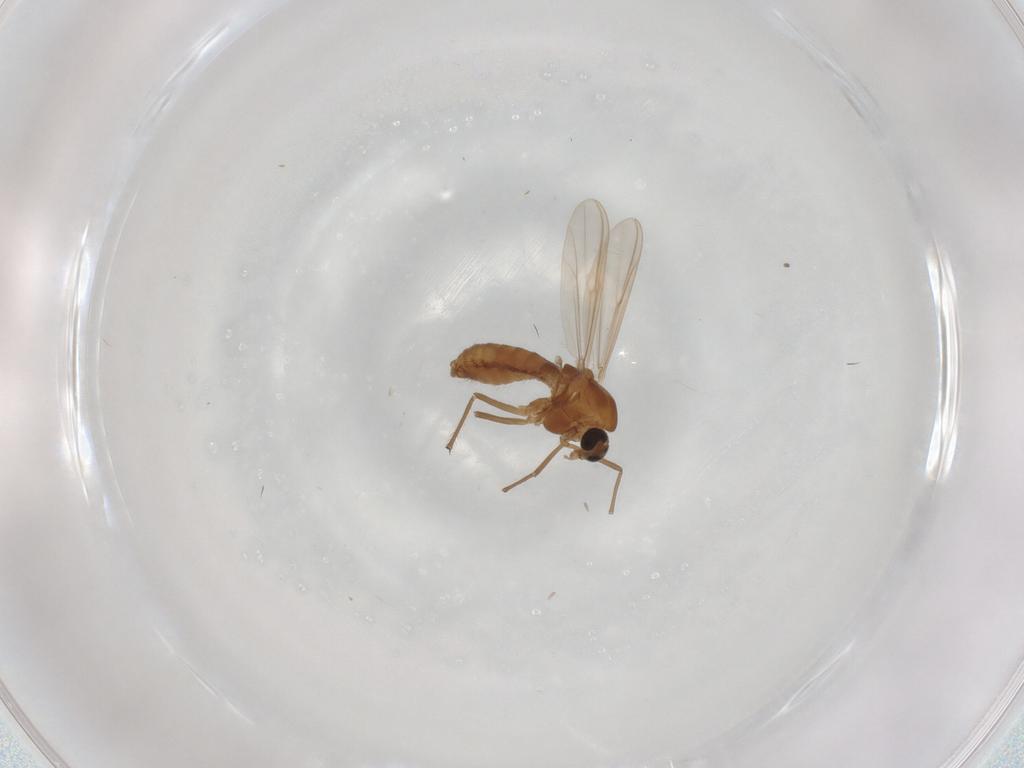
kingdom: Animalia
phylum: Arthropoda
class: Insecta
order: Diptera
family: Chironomidae
